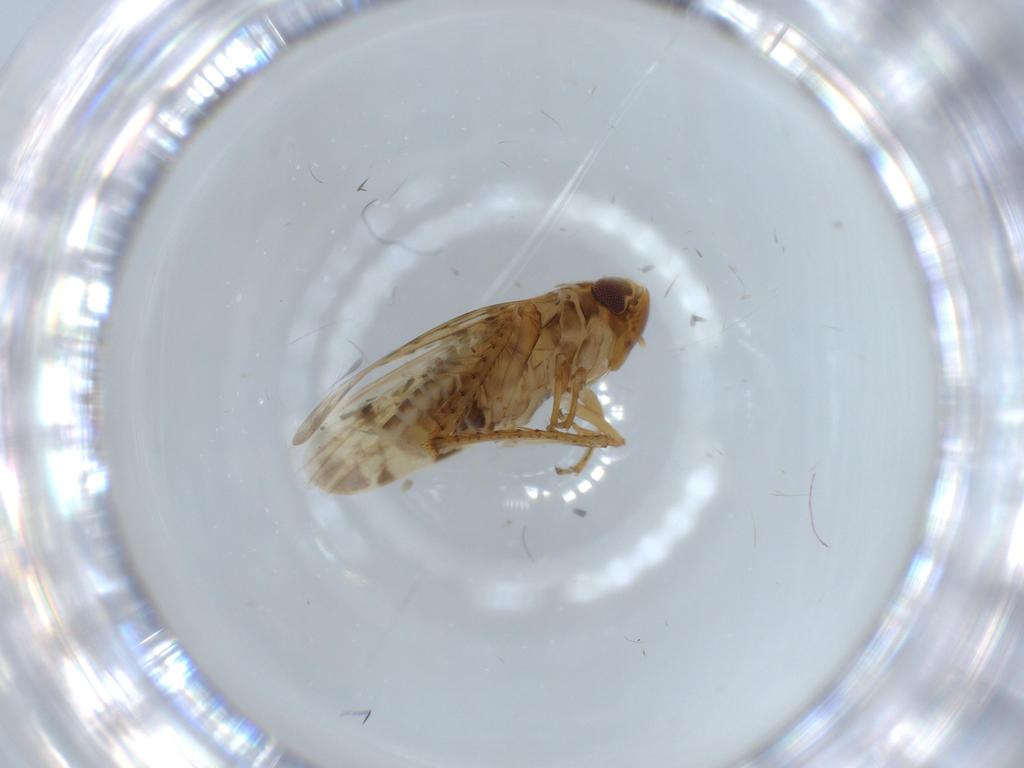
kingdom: Animalia
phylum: Arthropoda
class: Insecta
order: Hemiptera
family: Cicadellidae
